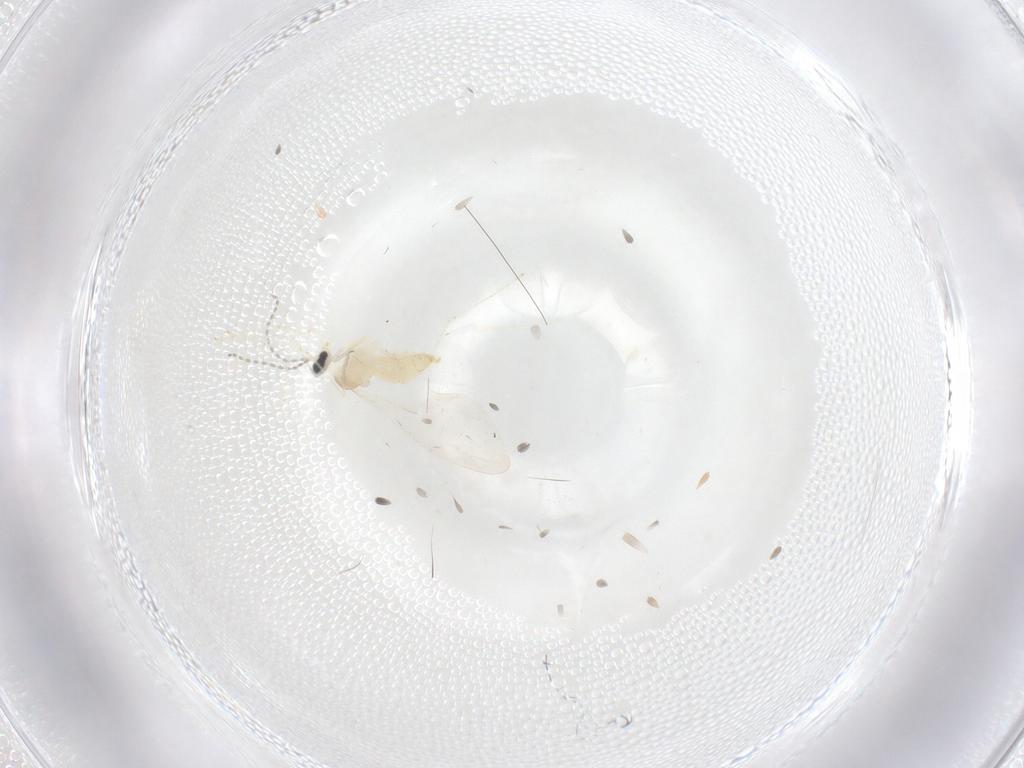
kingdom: Animalia
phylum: Arthropoda
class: Insecta
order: Diptera
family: Cecidomyiidae
